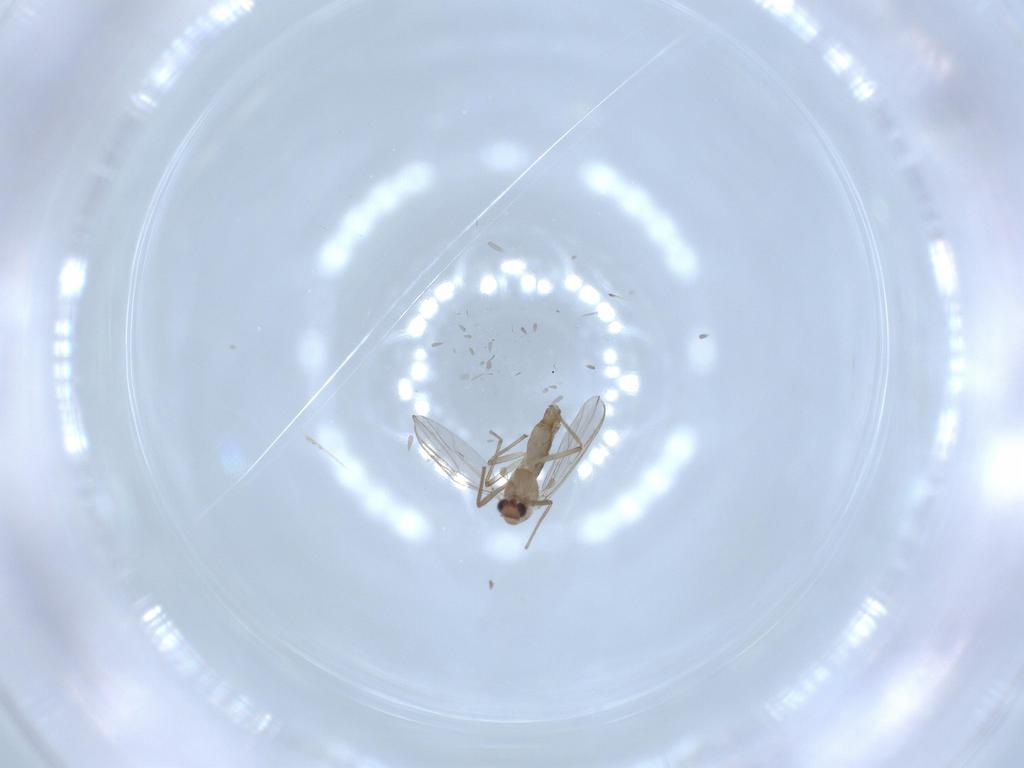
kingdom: Animalia
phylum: Arthropoda
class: Insecta
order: Diptera
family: Chironomidae
